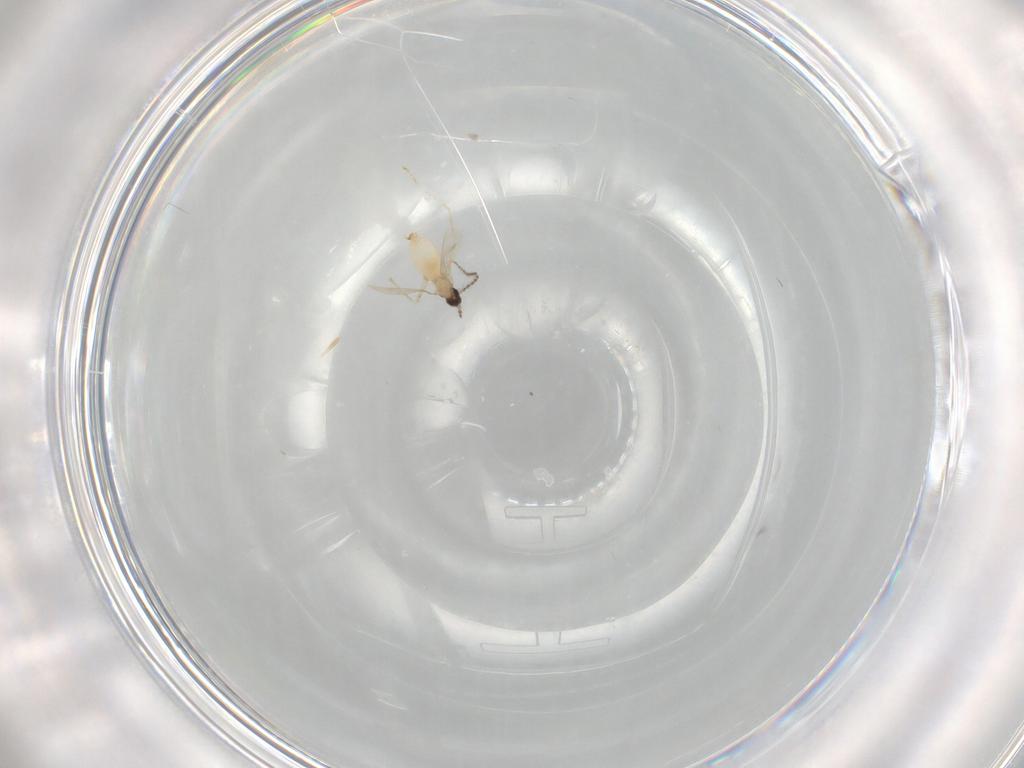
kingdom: Animalia
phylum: Arthropoda
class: Insecta
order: Diptera
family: Cecidomyiidae
